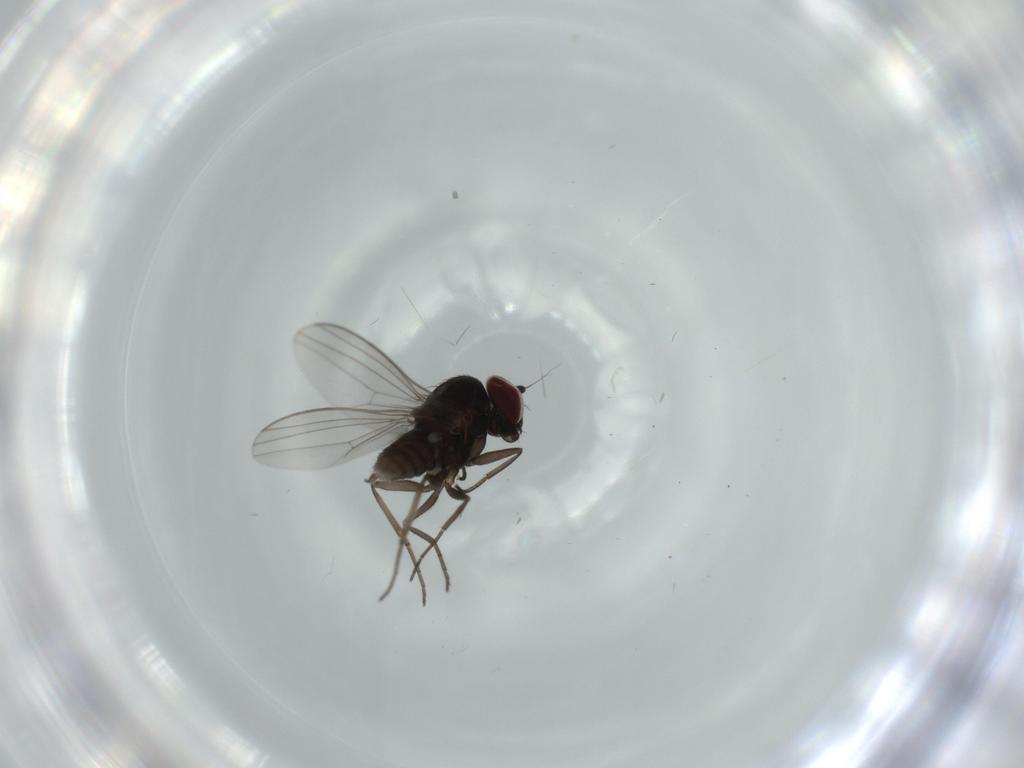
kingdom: Animalia
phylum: Arthropoda
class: Insecta
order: Diptera
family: Dolichopodidae
